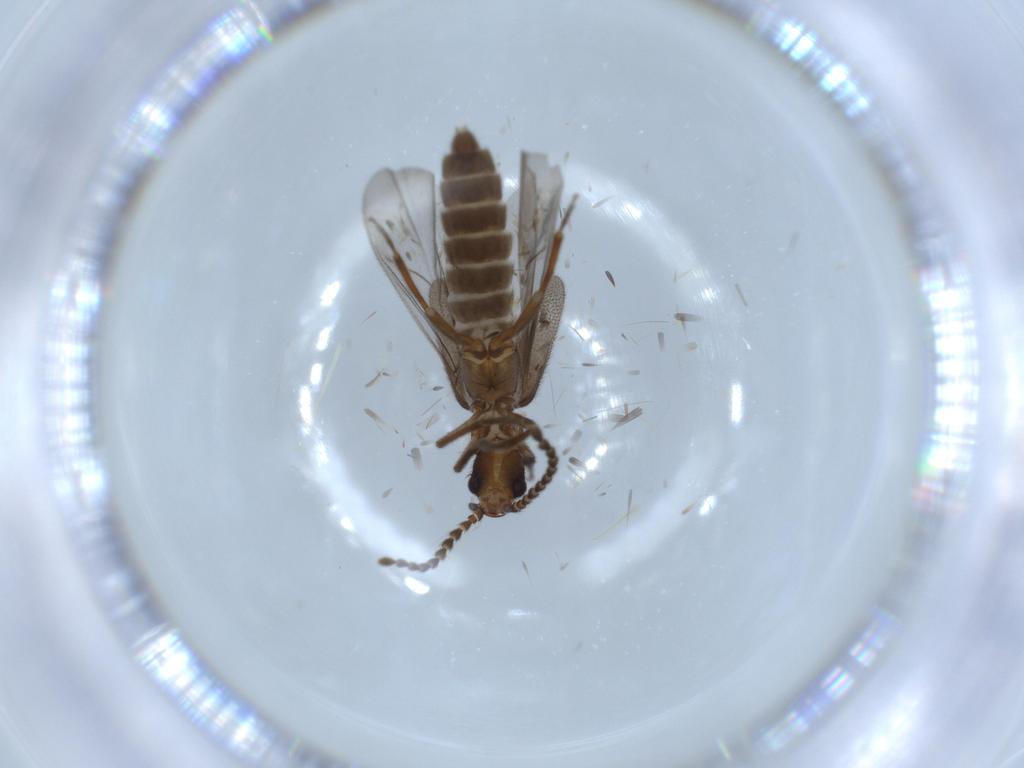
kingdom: Animalia
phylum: Arthropoda
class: Insecta
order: Coleoptera
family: Omethidae
